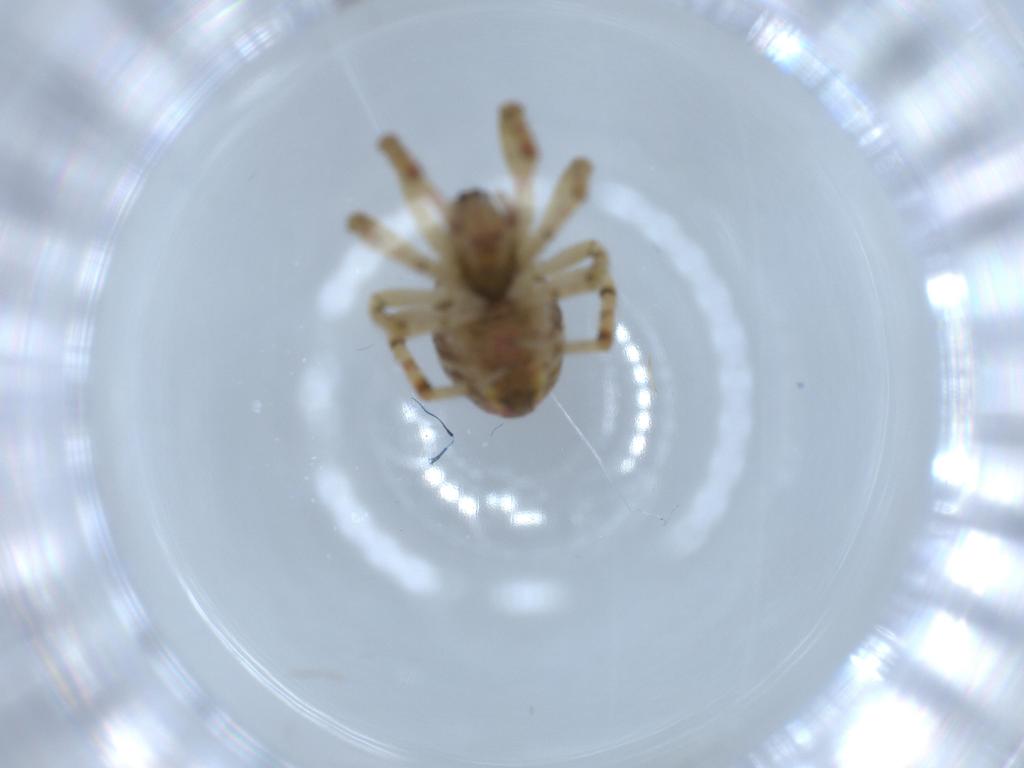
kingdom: Animalia
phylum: Arthropoda
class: Arachnida
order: Araneae
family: Theridiidae
